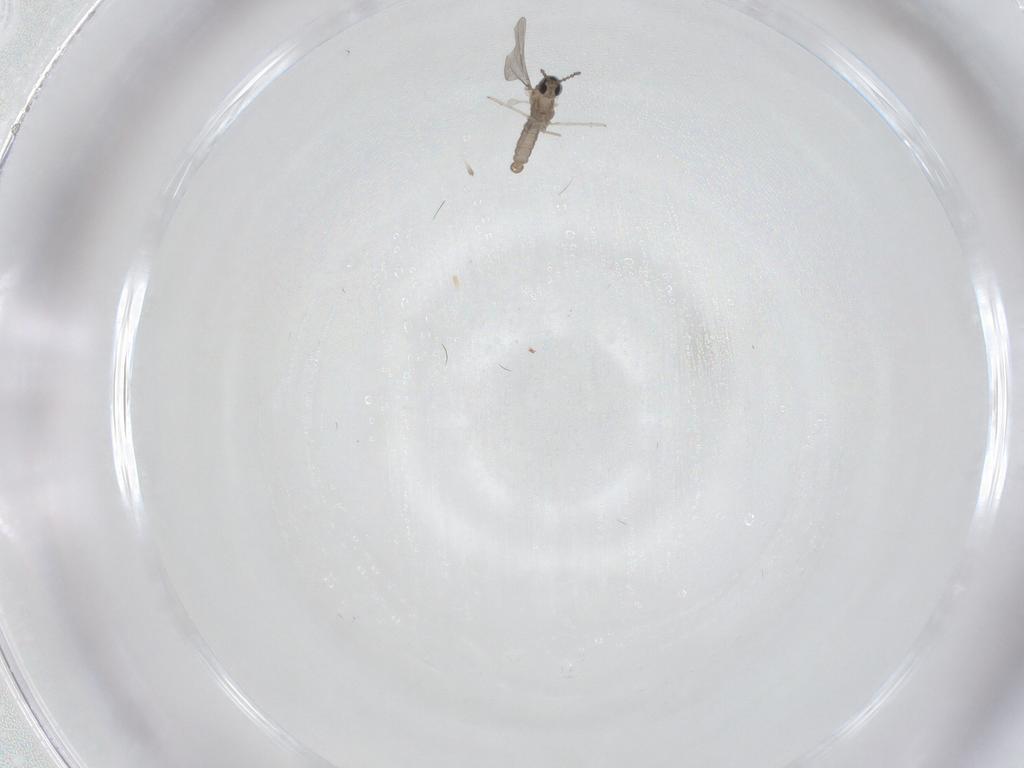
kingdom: Animalia
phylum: Arthropoda
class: Insecta
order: Diptera
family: Cecidomyiidae
